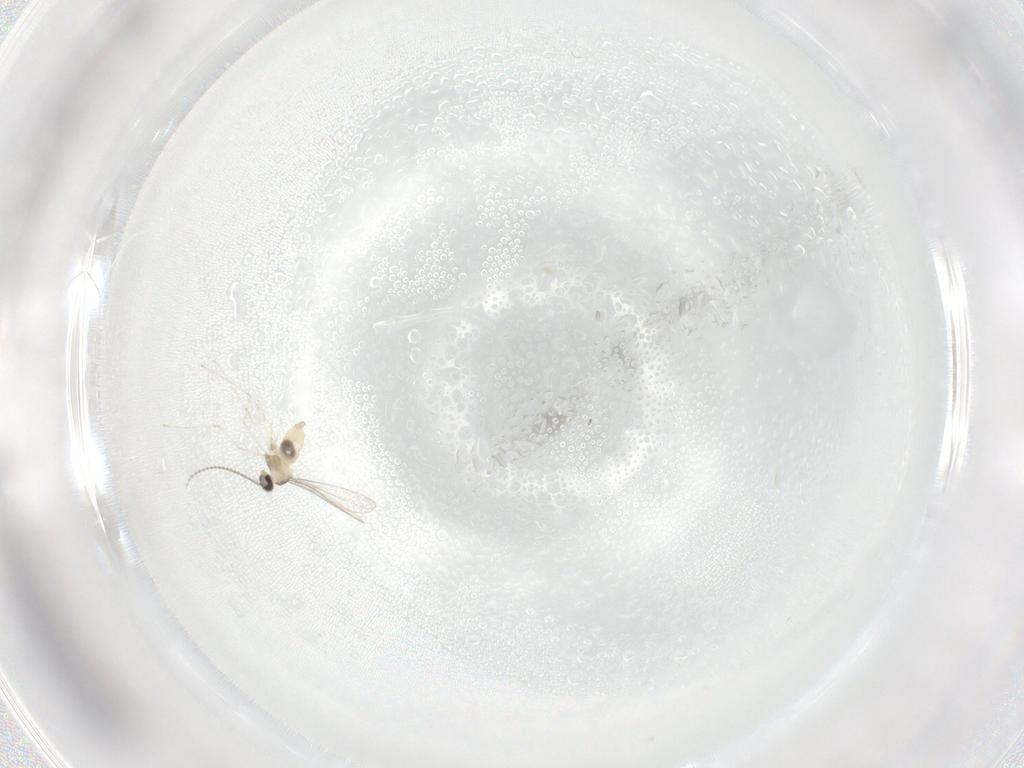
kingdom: Animalia
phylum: Arthropoda
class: Insecta
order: Diptera
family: Cecidomyiidae
